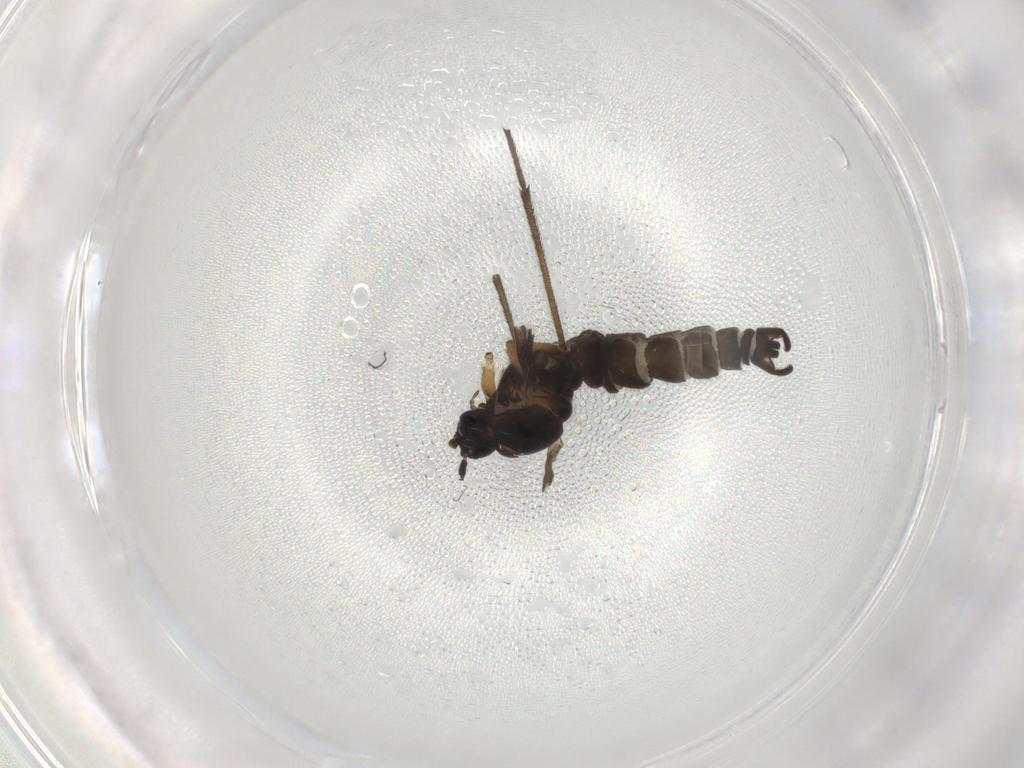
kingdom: Animalia
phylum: Arthropoda
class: Insecta
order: Diptera
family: Sciaridae
